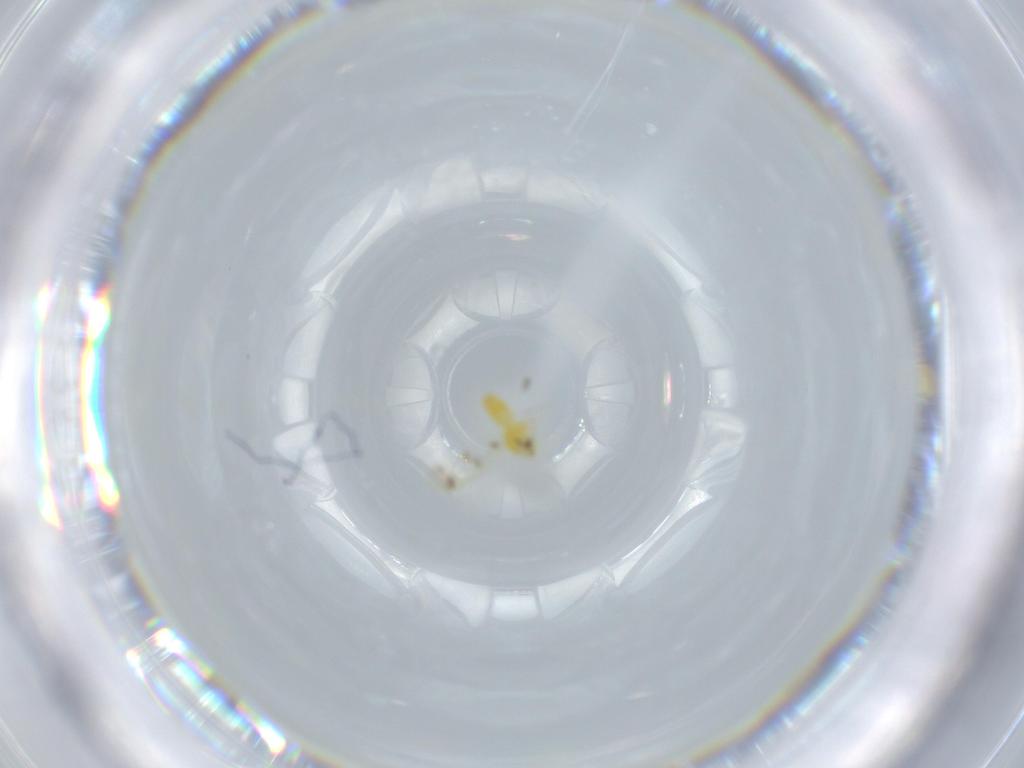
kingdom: Animalia
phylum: Arthropoda
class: Insecta
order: Hemiptera
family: Aleyrodidae
